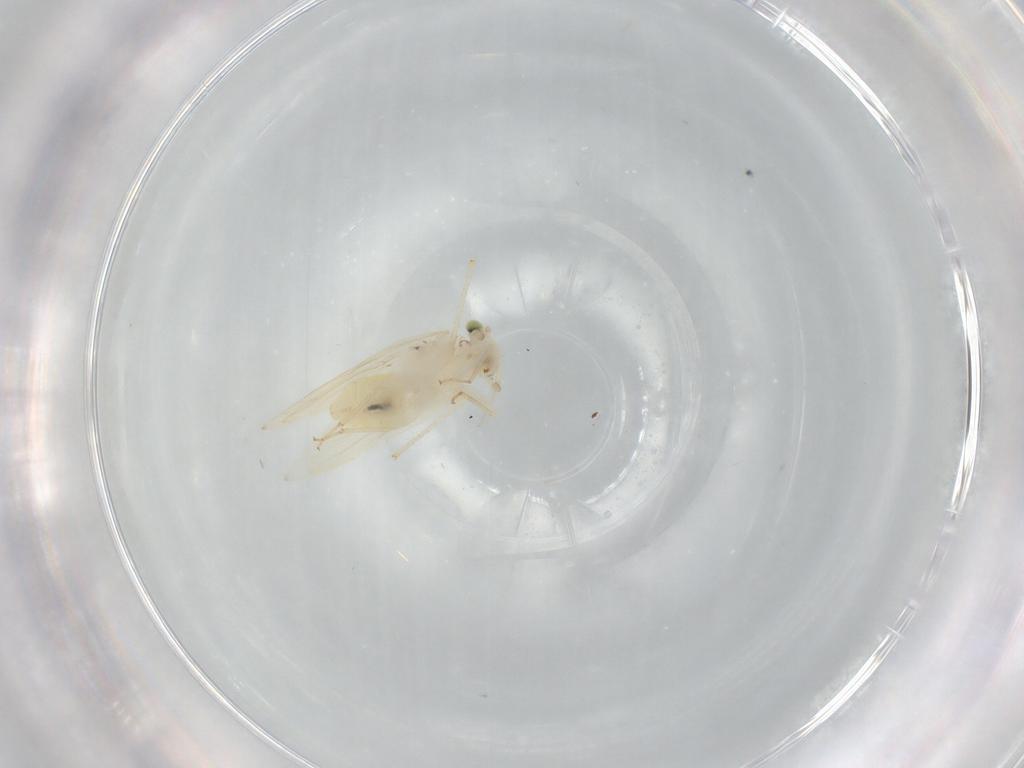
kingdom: Animalia
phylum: Arthropoda
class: Insecta
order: Psocodea
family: Lepidopsocidae
